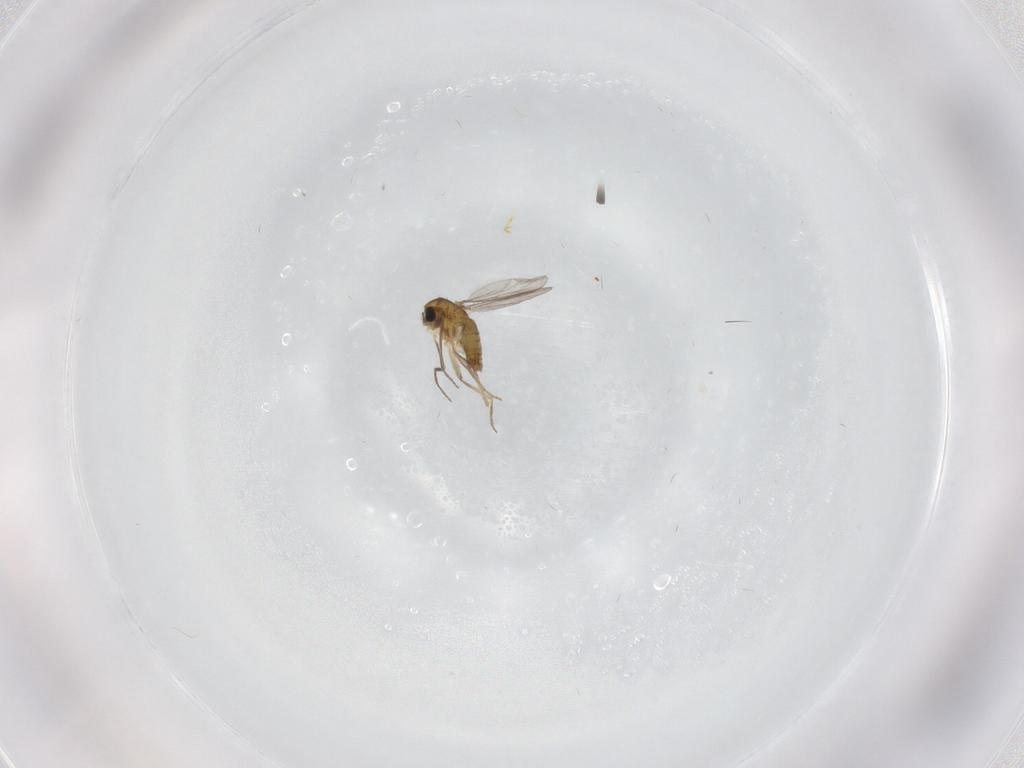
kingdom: Animalia
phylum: Arthropoda
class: Insecta
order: Diptera
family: Chironomidae
